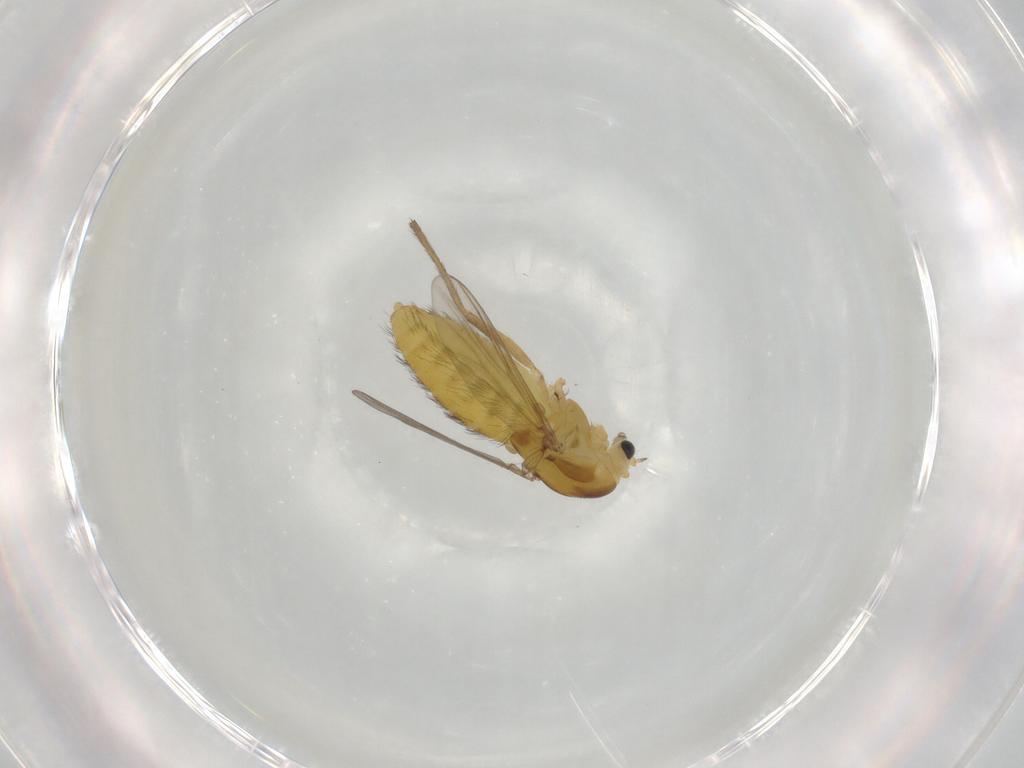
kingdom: Animalia
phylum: Arthropoda
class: Insecta
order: Diptera
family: Chironomidae
